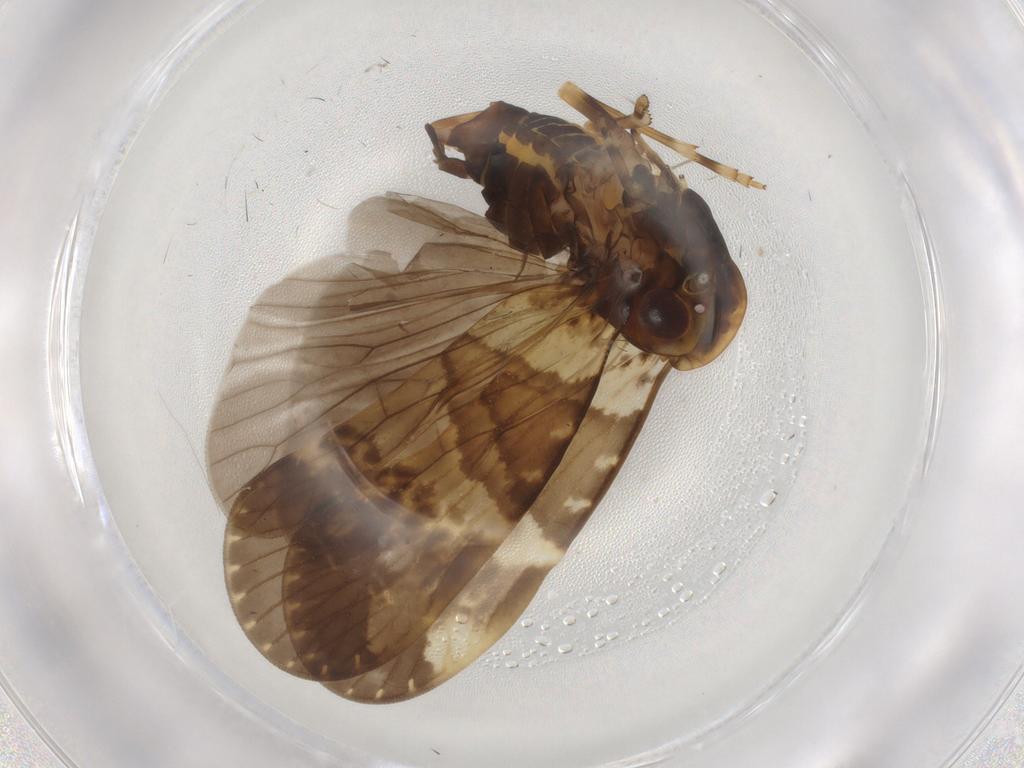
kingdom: Animalia
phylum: Arthropoda
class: Insecta
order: Hemiptera
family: Cixiidae
